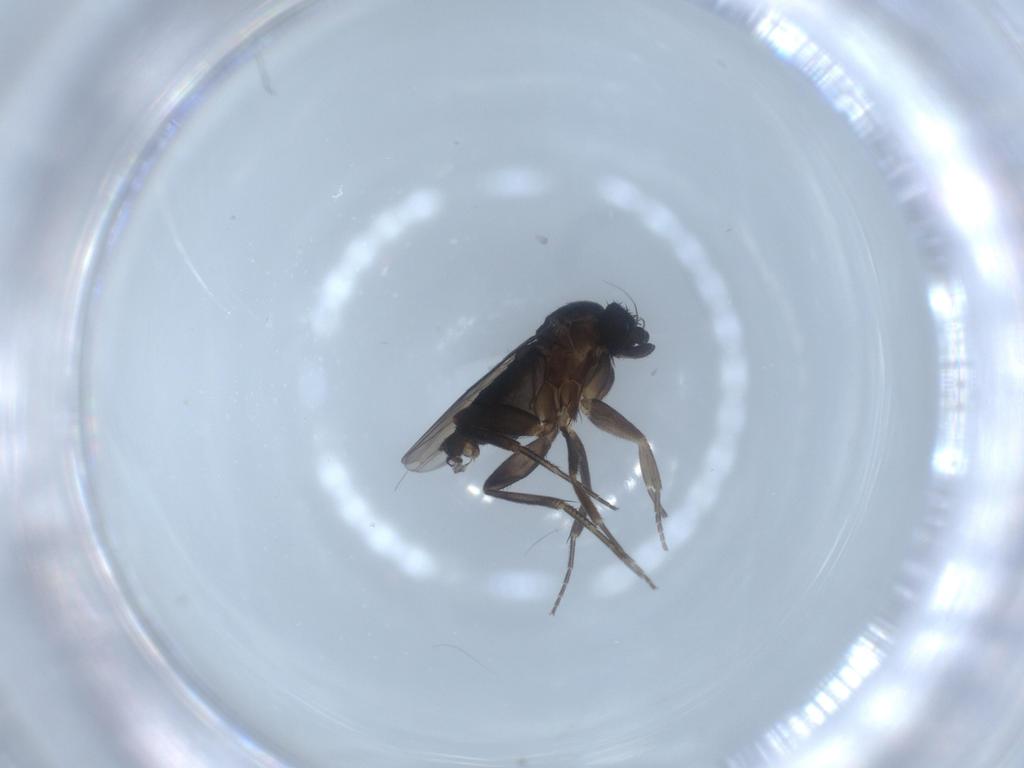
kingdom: Animalia
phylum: Arthropoda
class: Insecta
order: Diptera
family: Phoridae
